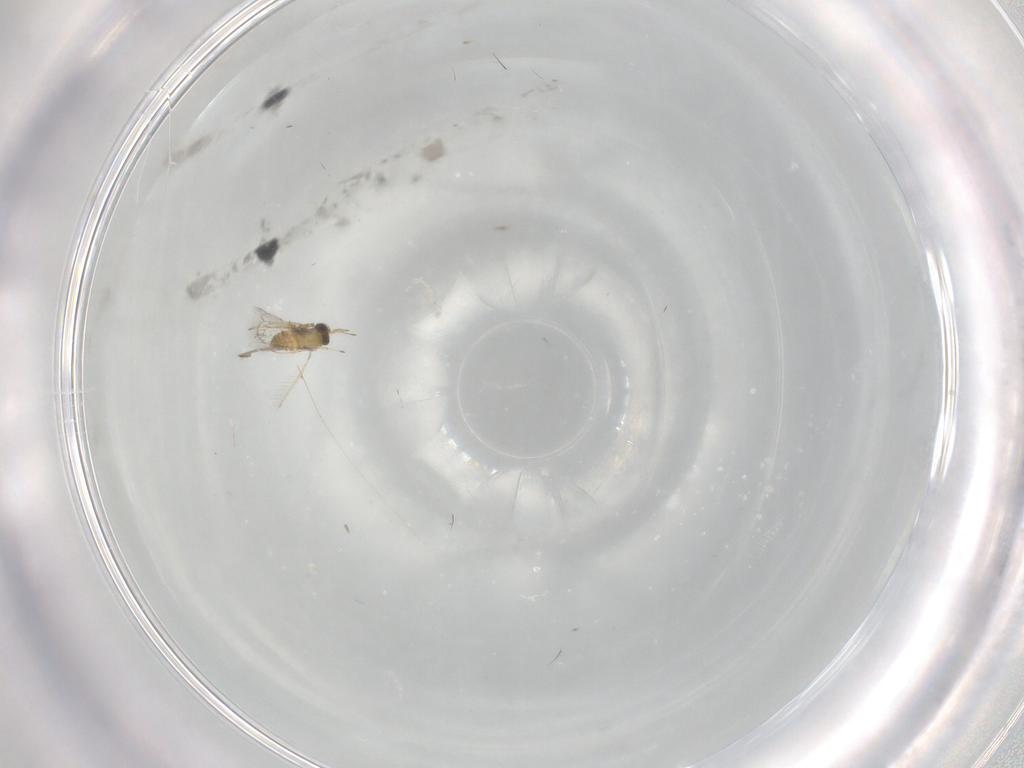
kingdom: Animalia
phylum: Arthropoda
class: Insecta
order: Hymenoptera
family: Trichogrammatidae
